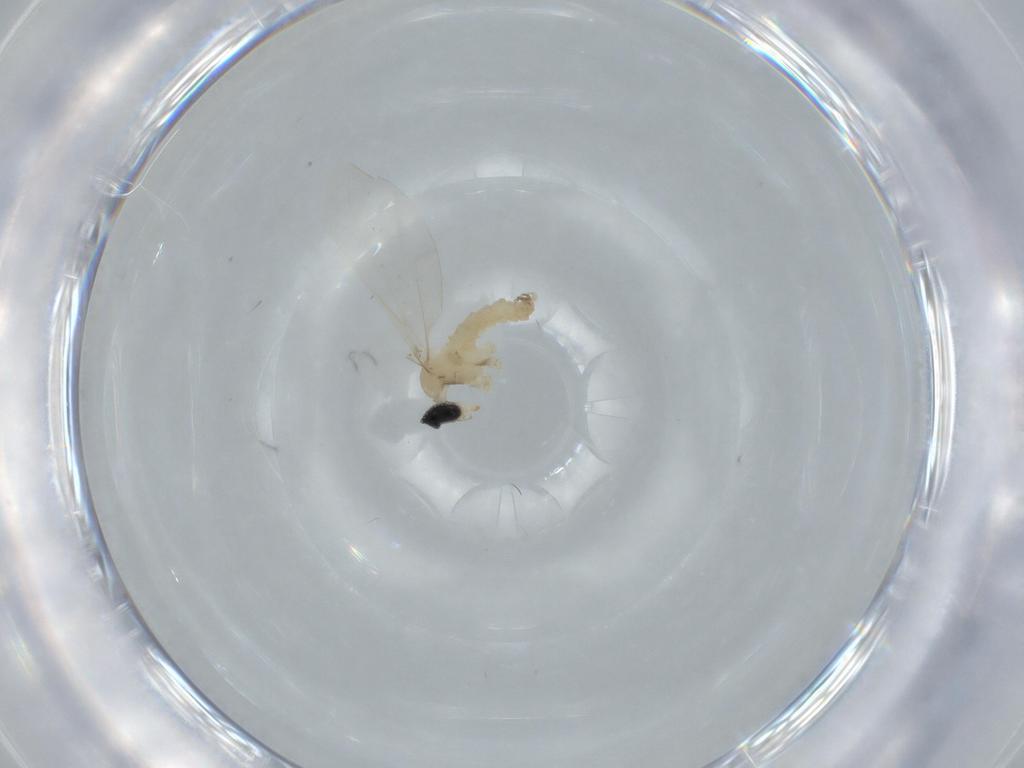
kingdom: Animalia
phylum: Arthropoda
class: Insecta
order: Diptera
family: Cecidomyiidae
